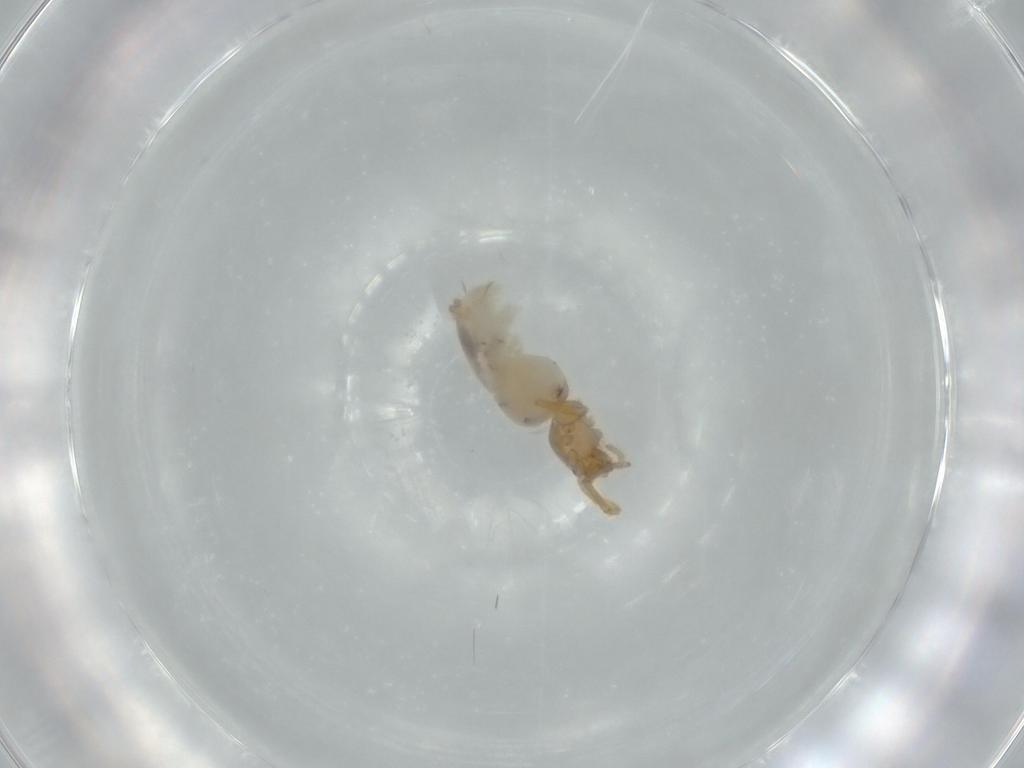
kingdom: Animalia
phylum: Arthropoda
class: Arachnida
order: Araneae
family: Oonopidae
